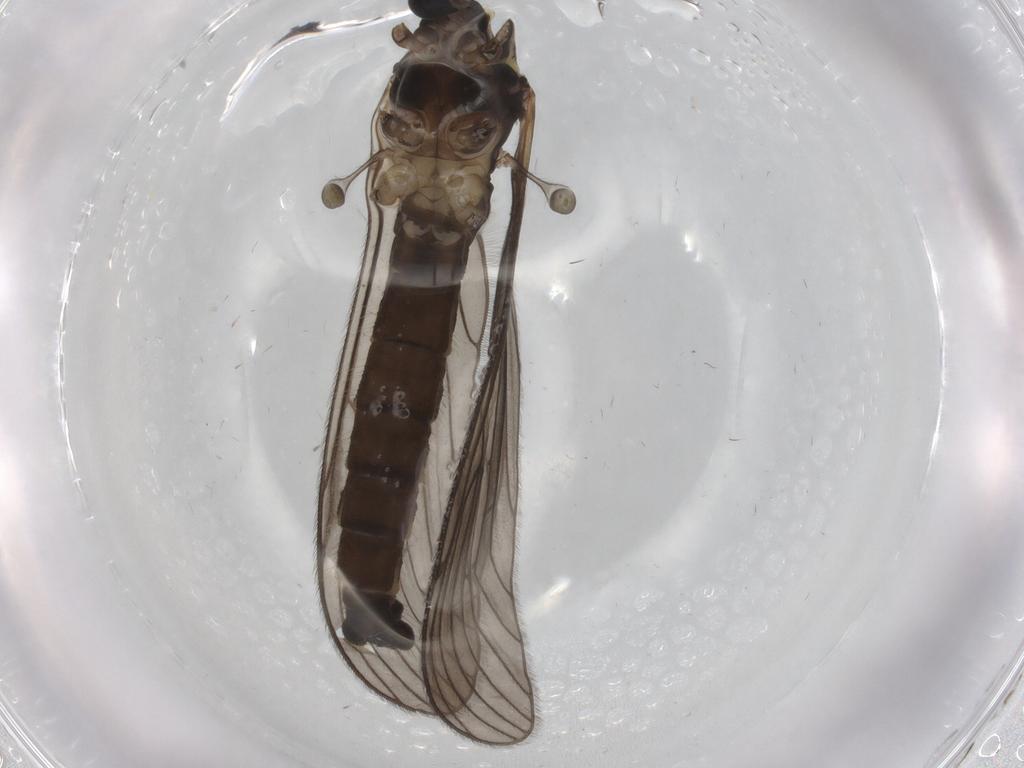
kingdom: Animalia
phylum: Arthropoda
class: Insecta
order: Diptera
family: Limoniidae
